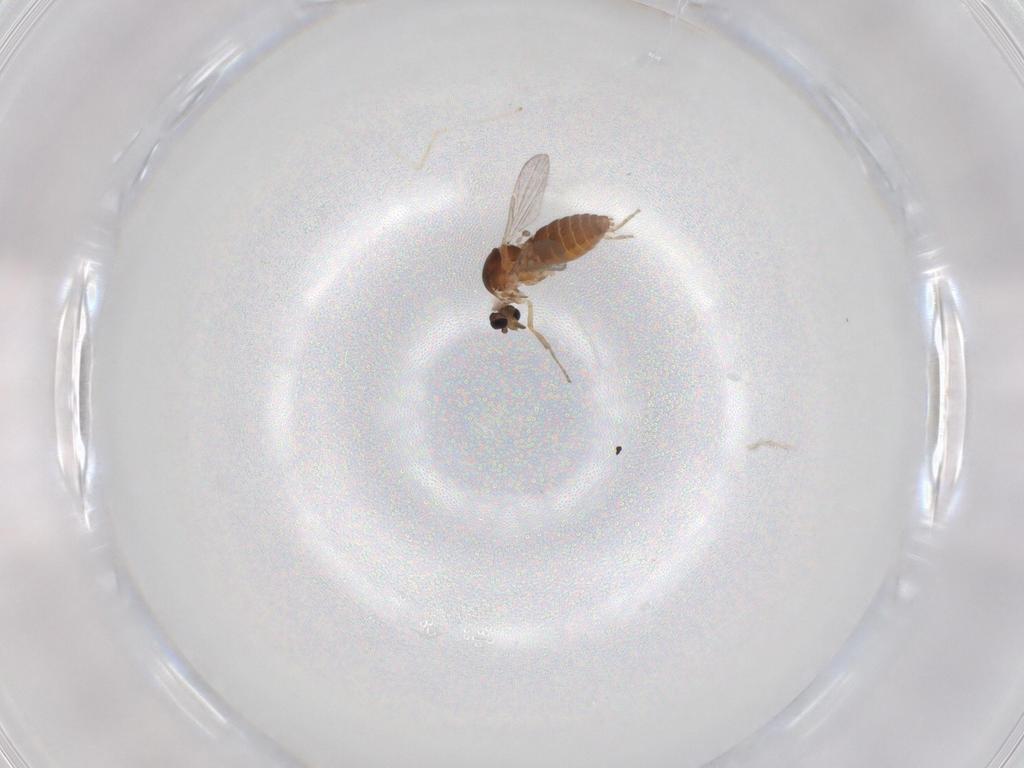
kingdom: Animalia
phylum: Arthropoda
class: Insecta
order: Diptera
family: Ceratopogonidae
